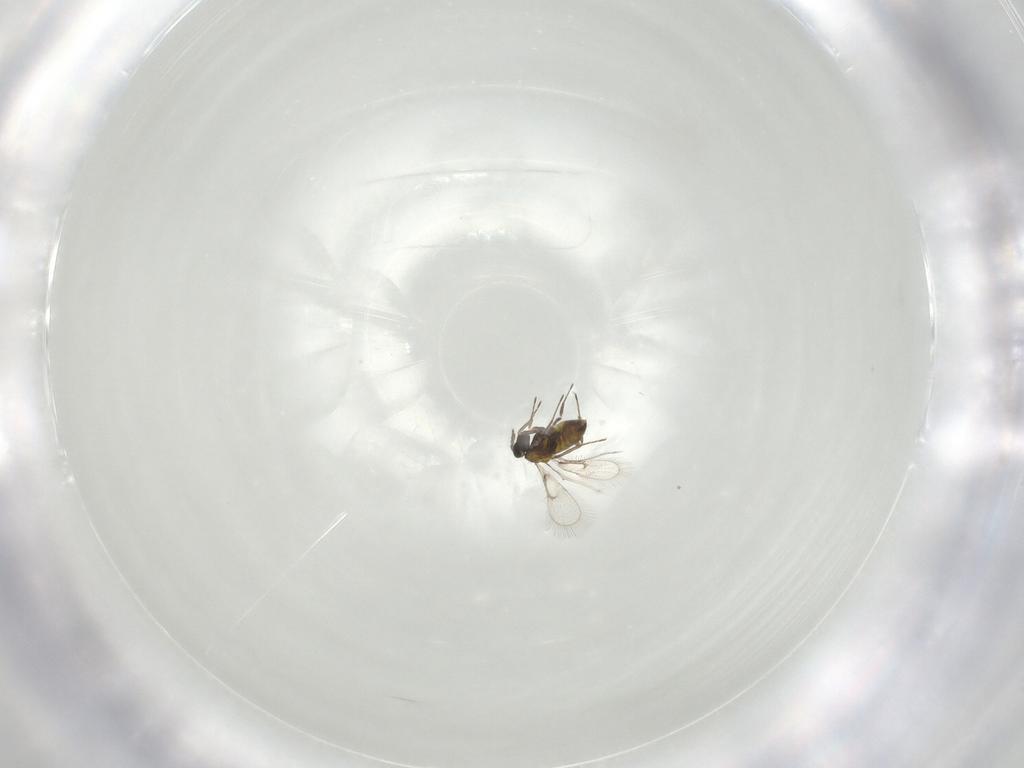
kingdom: Animalia
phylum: Arthropoda
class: Insecta
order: Hymenoptera
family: Trichogrammatidae
